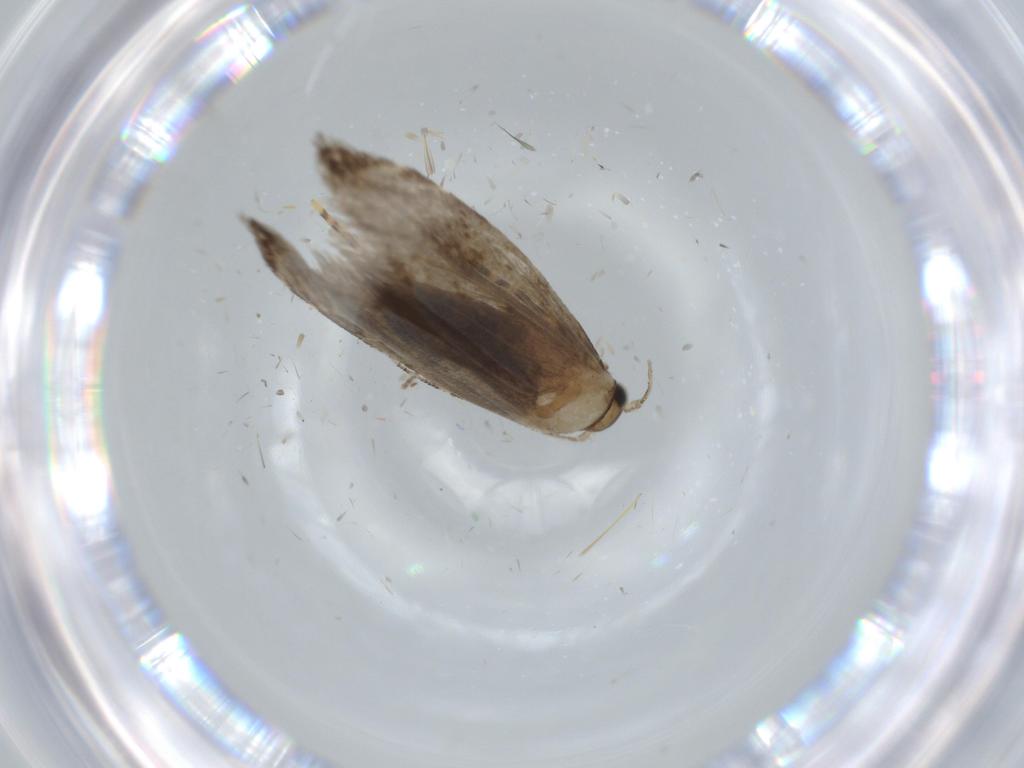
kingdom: Animalia
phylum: Arthropoda
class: Insecta
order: Lepidoptera
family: Tineidae
